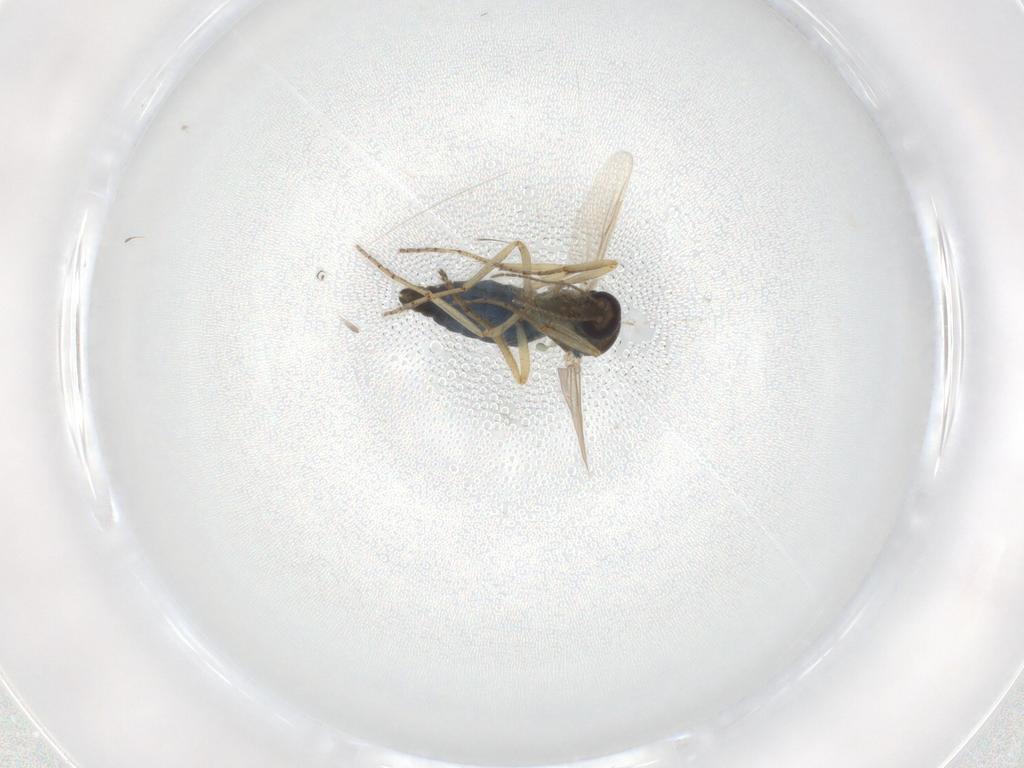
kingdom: Animalia
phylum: Arthropoda
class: Insecta
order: Diptera
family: Ceratopogonidae
